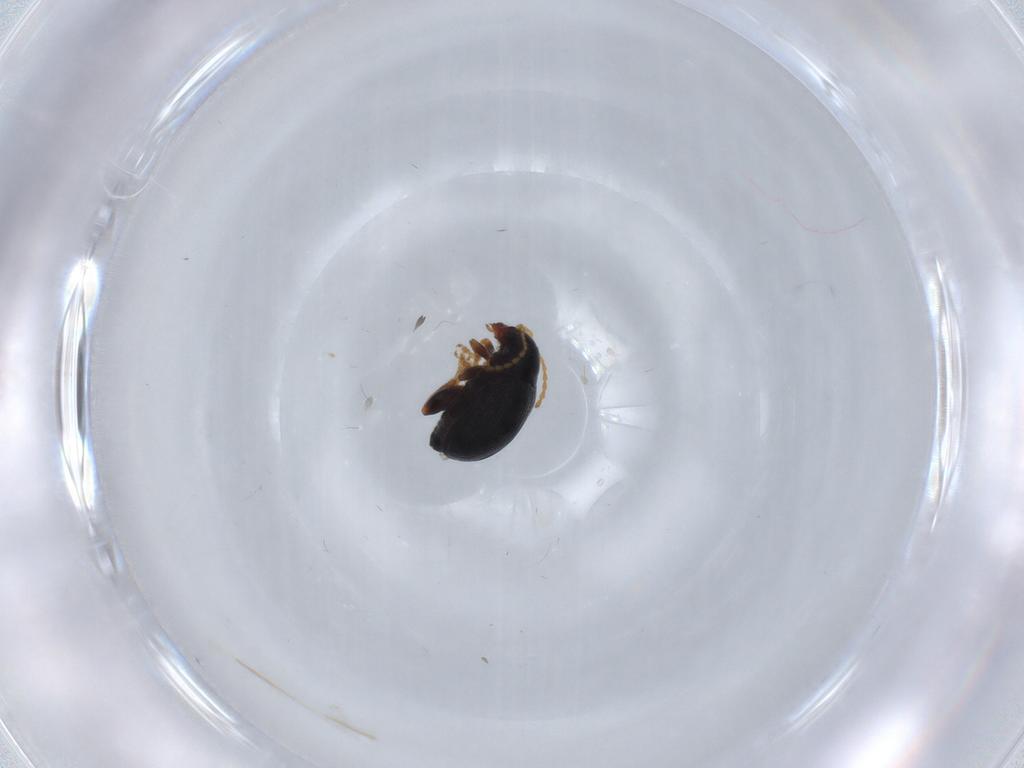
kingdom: Animalia
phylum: Arthropoda
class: Insecta
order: Coleoptera
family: Chrysomelidae
